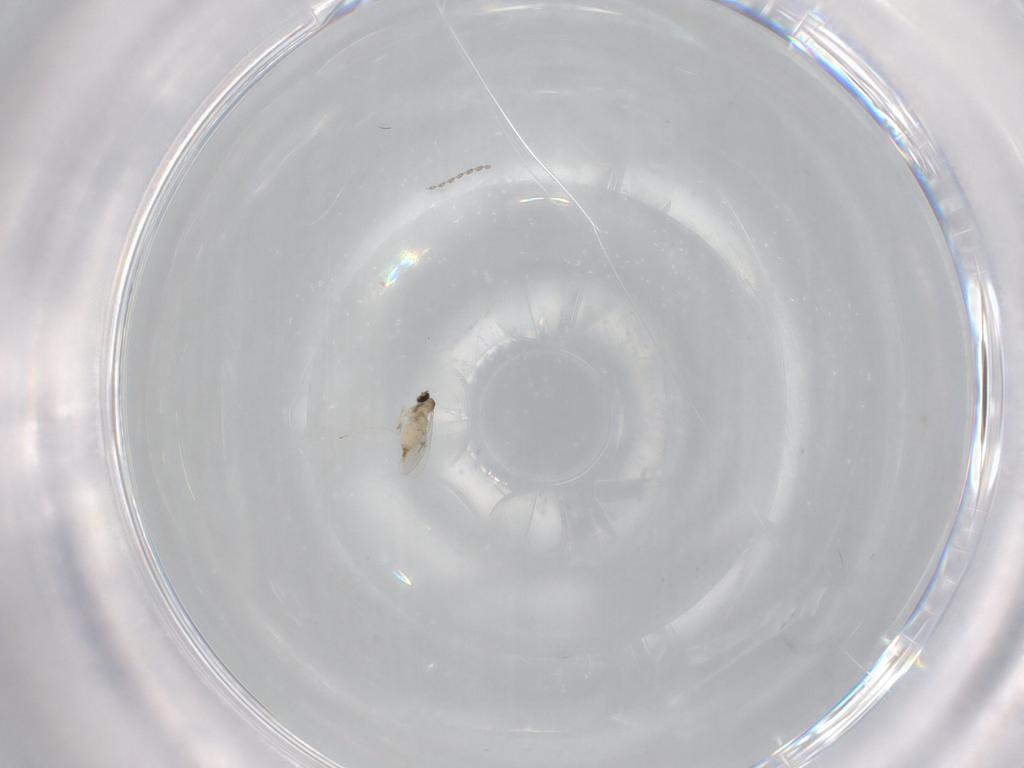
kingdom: Animalia
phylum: Arthropoda
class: Insecta
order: Diptera
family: Cecidomyiidae
